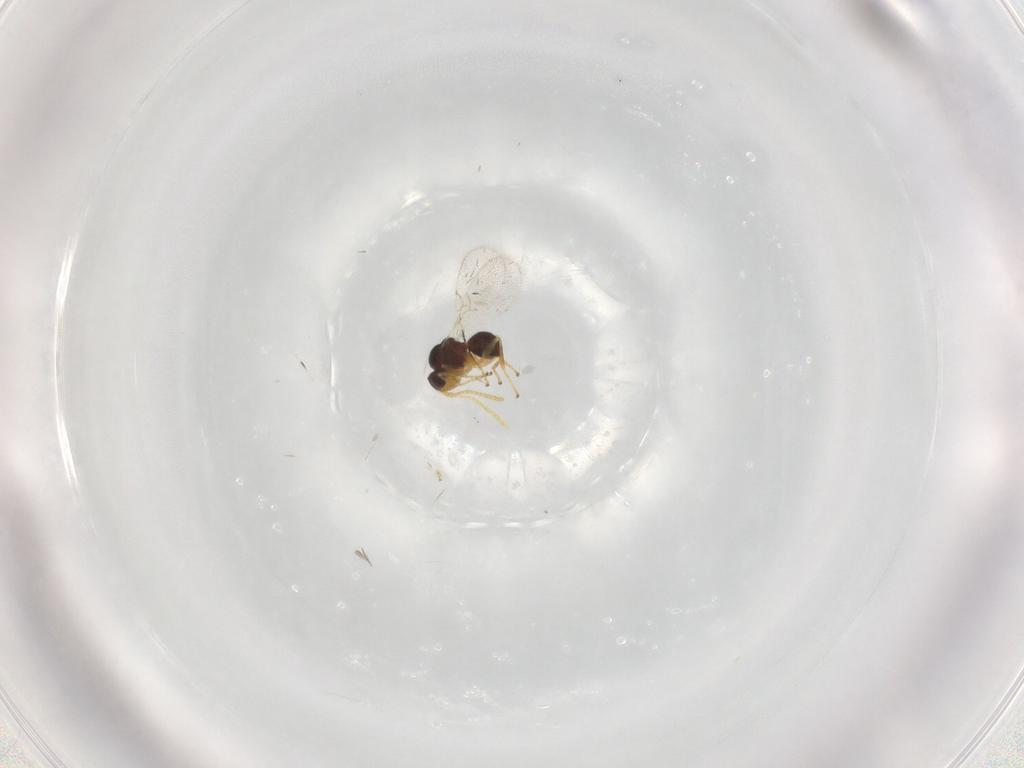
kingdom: Animalia
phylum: Arthropoda
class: Insecta
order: Hymenoptera
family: Figitidae
